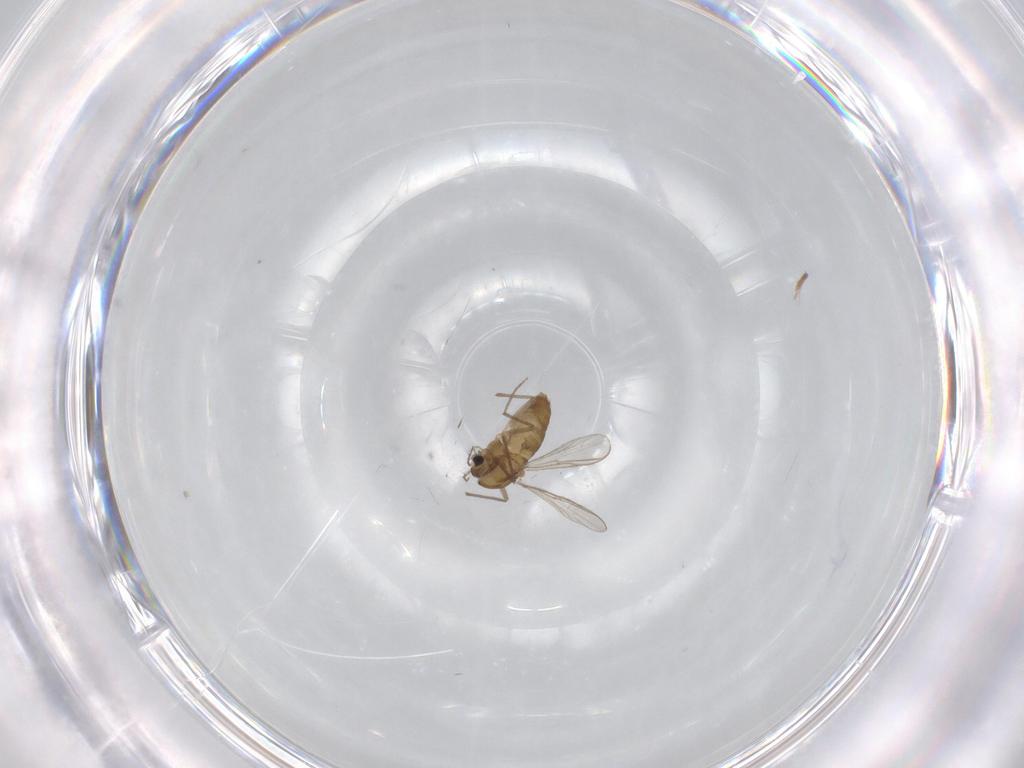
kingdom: Animalia
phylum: Arthropoda
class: Insecta
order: Diptera
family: Chironomidae
